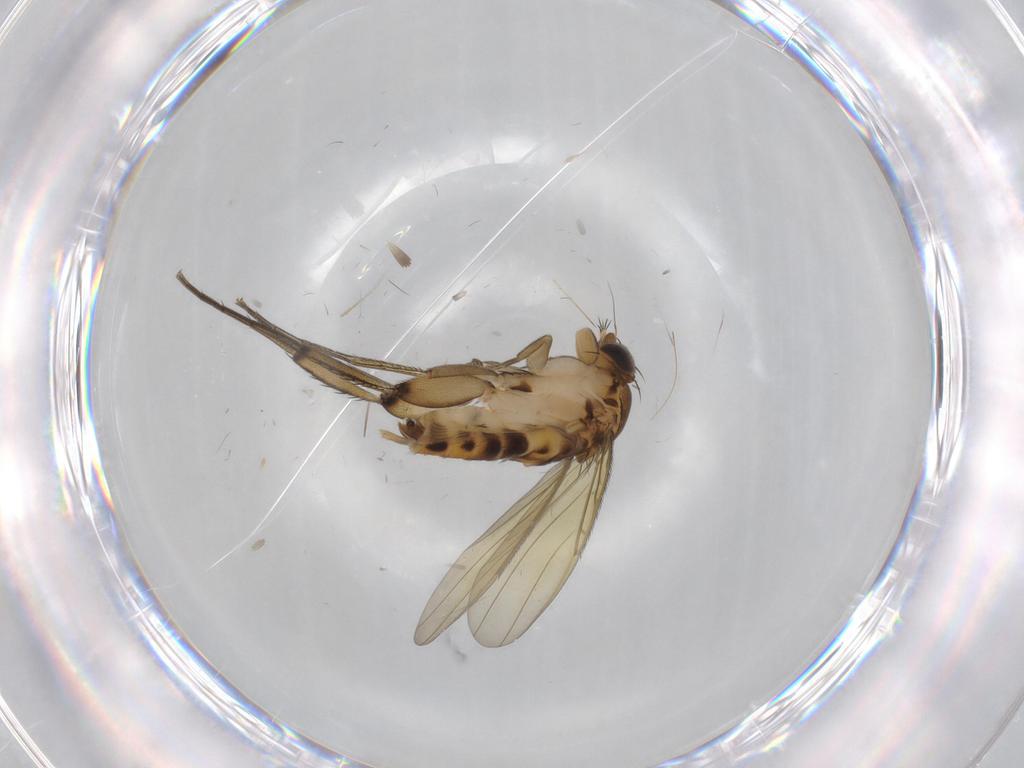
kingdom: Animalia
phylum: Arthropoda
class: Insecta
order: Diptera
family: Phoridae
